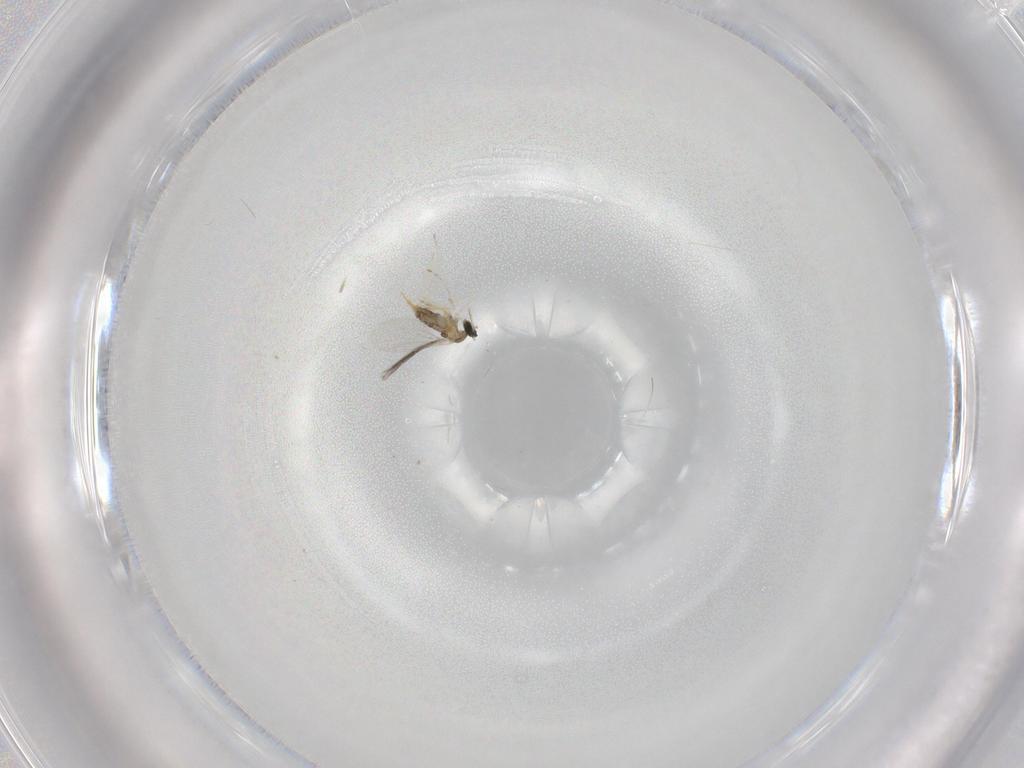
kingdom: Animalia
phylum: Arthropoda
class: Insecta
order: Diptera
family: Cecidomyiidae
